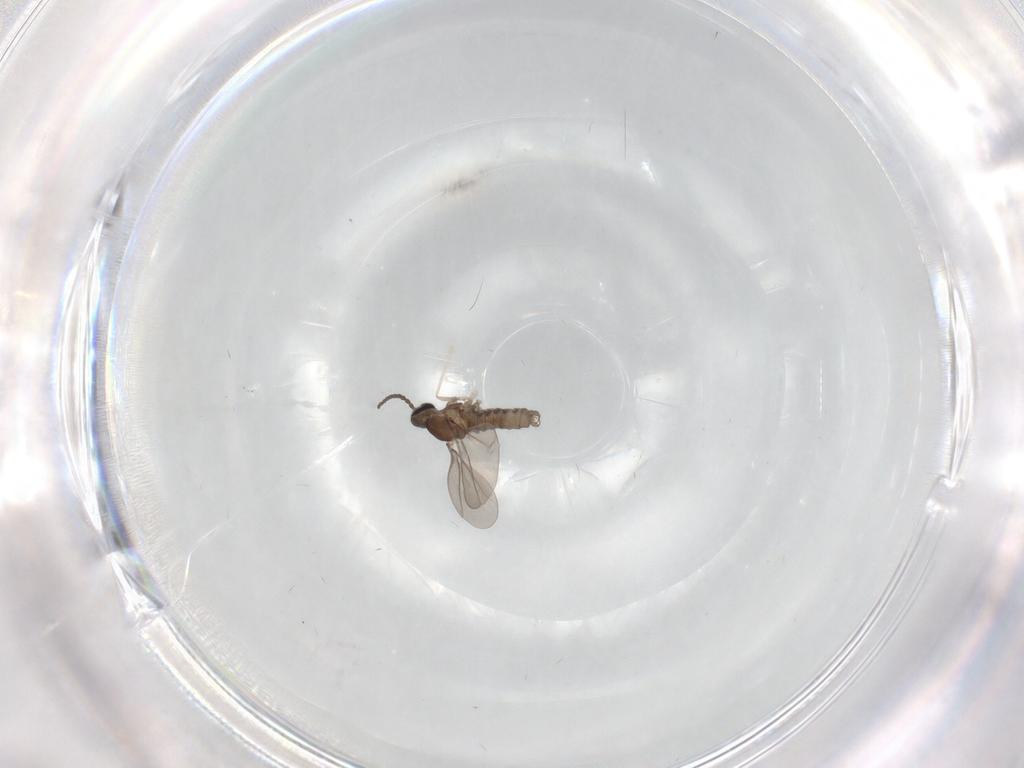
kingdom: Animalia
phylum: Arthropoda
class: Insecta
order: Diptera
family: Cecidomyiidae
